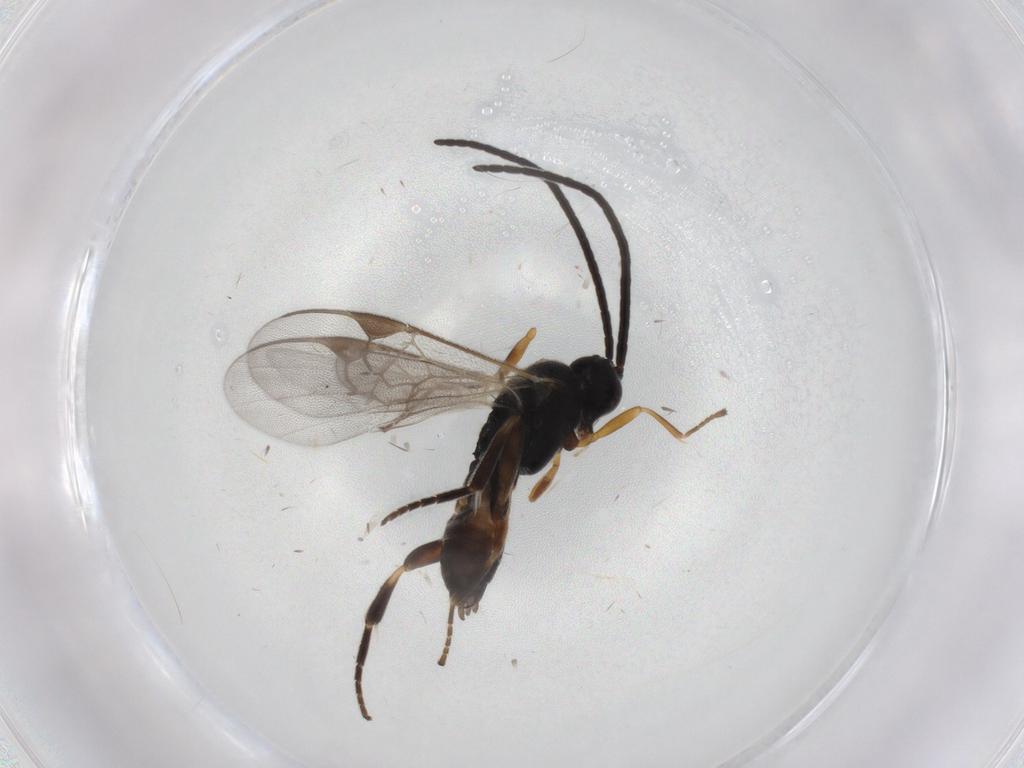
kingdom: Animalia
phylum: Arthropoda
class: Insecta
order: Hymenoptera
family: Braconidae
